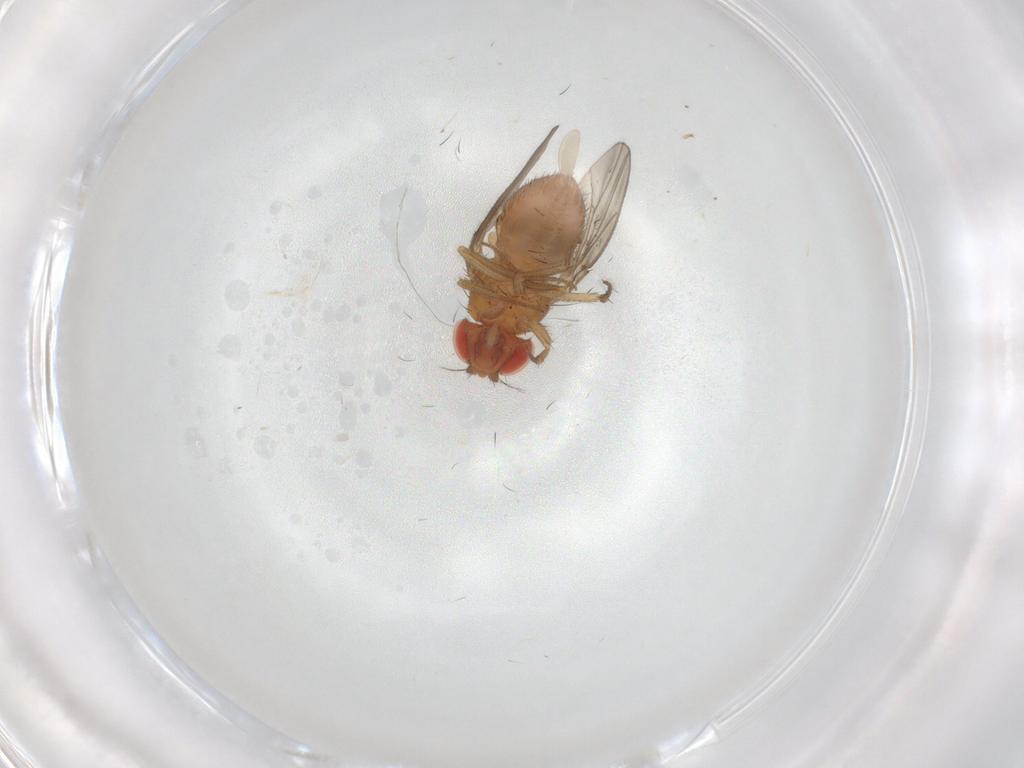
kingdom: Animalia
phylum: Arthropoda
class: Insecta
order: Diptera
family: Drosophilidae
